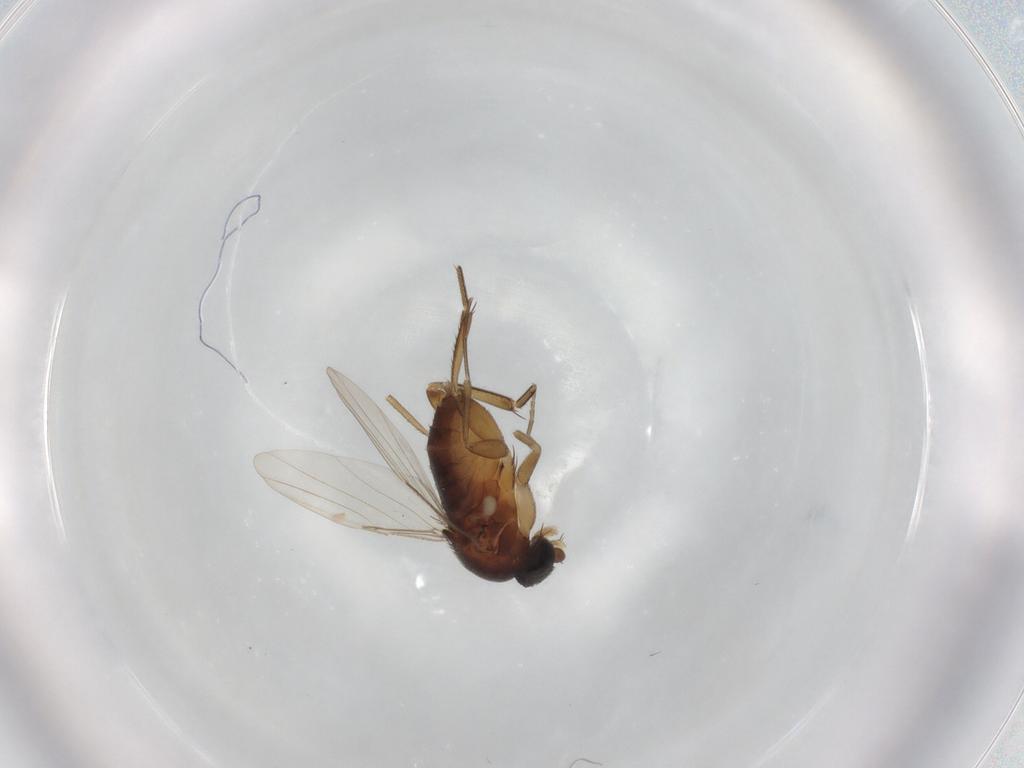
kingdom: Animalia
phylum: Arthropoda
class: Insecta
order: Diptera
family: Phoridae
